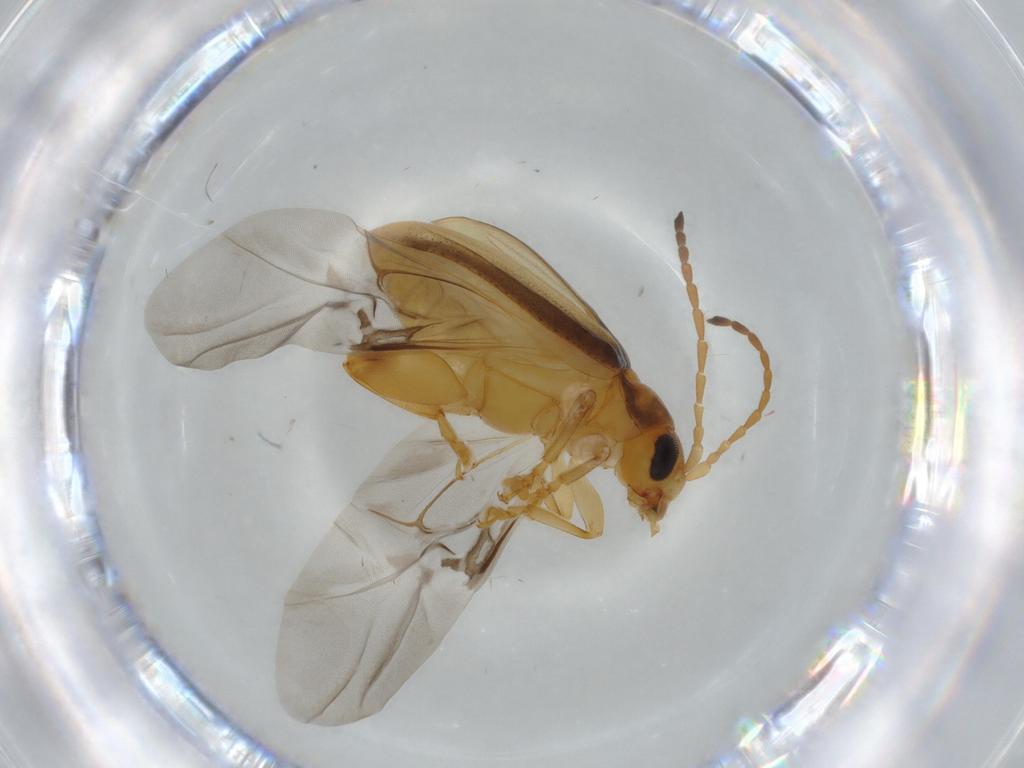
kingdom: Animalia
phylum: Arthropoda
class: Insecta
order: Coleoptera
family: Chrysomelidae
